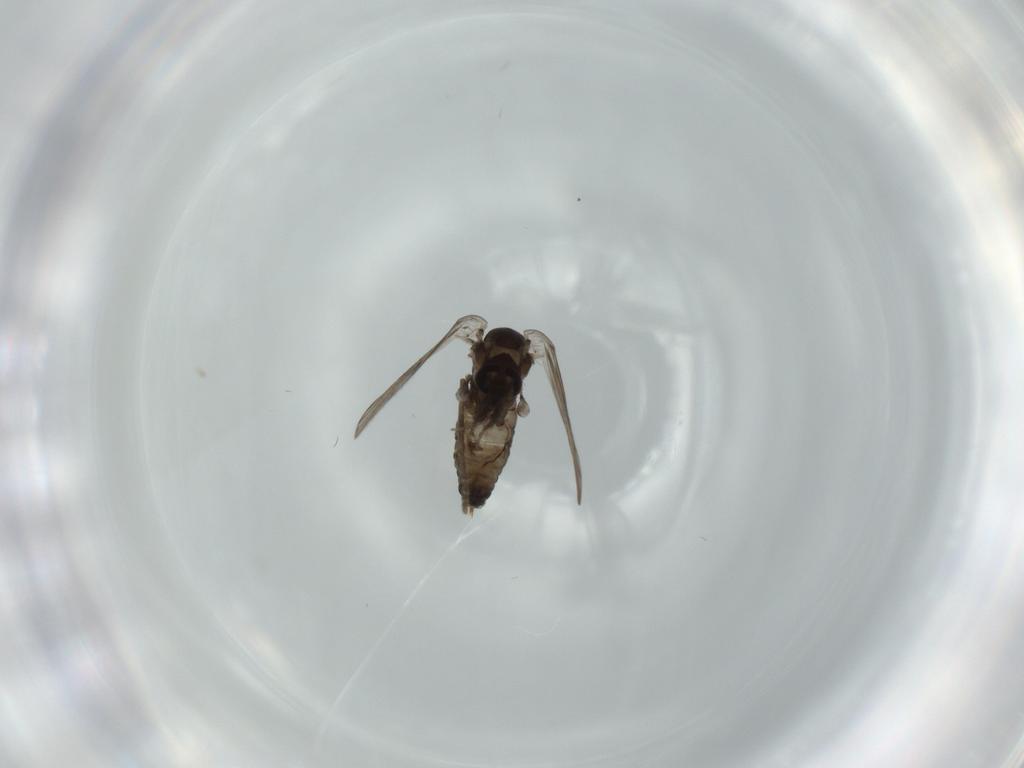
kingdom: Animalia
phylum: Arthropoda
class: Insecta
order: Diptera
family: Psychodidae
